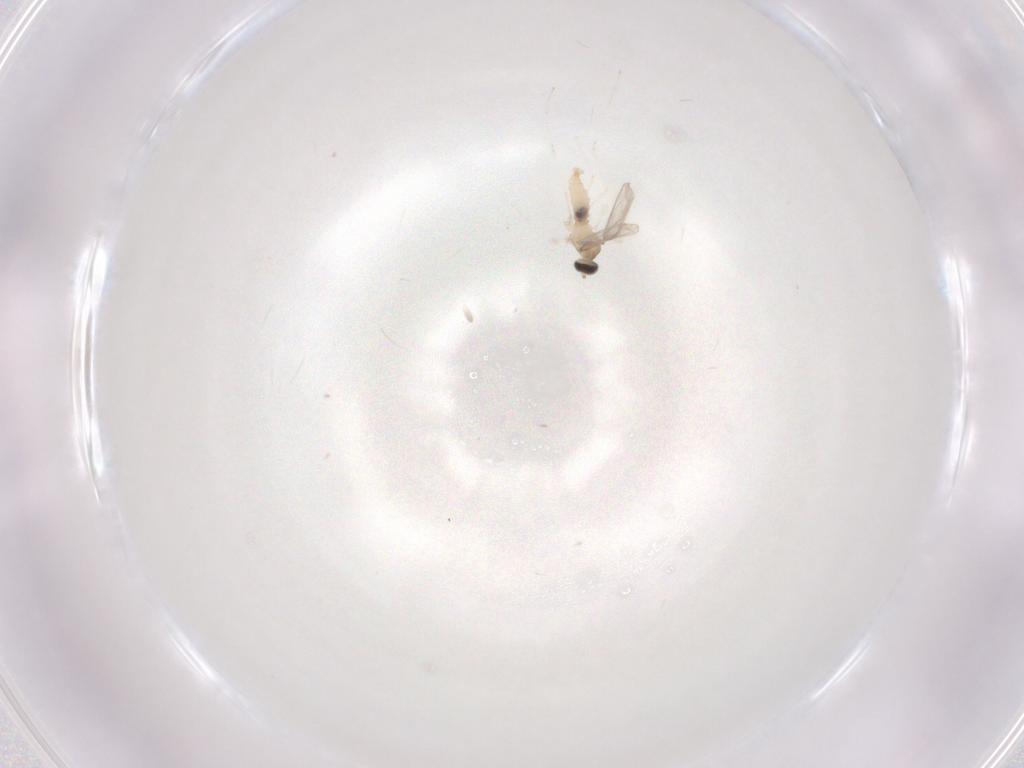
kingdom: Animalia
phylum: Arthropoda
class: Insecta
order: Diptera
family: Chironomidae
